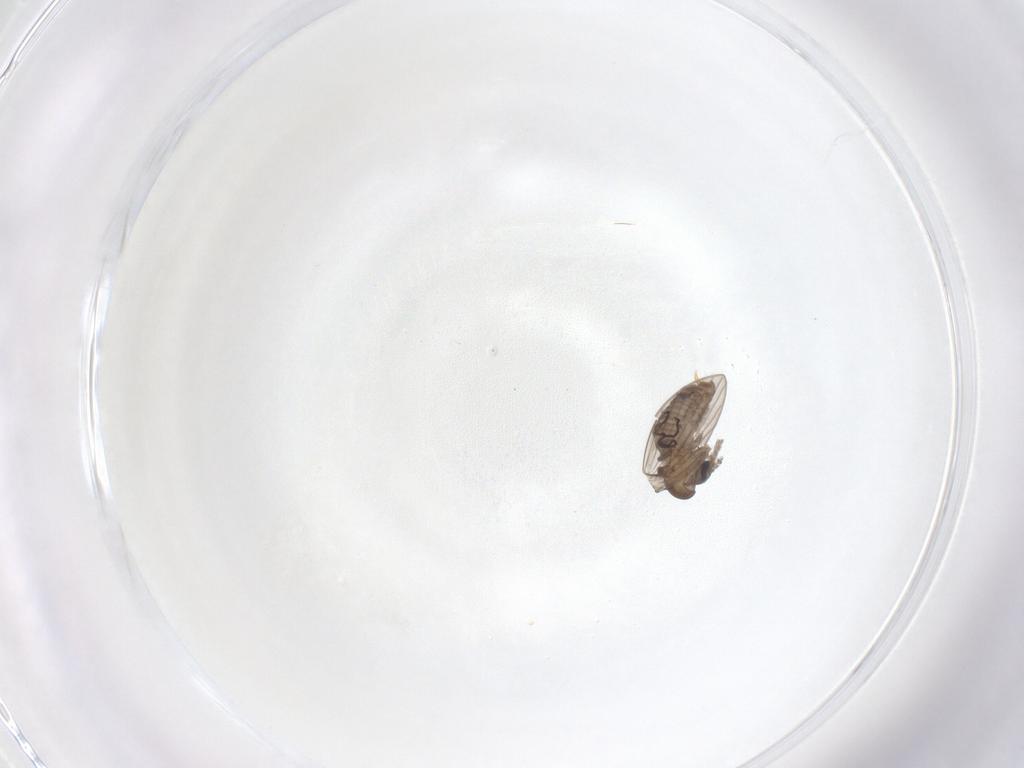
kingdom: Animalia
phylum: Arthropoda
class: Insecta
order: Diptera
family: Psychodidae
